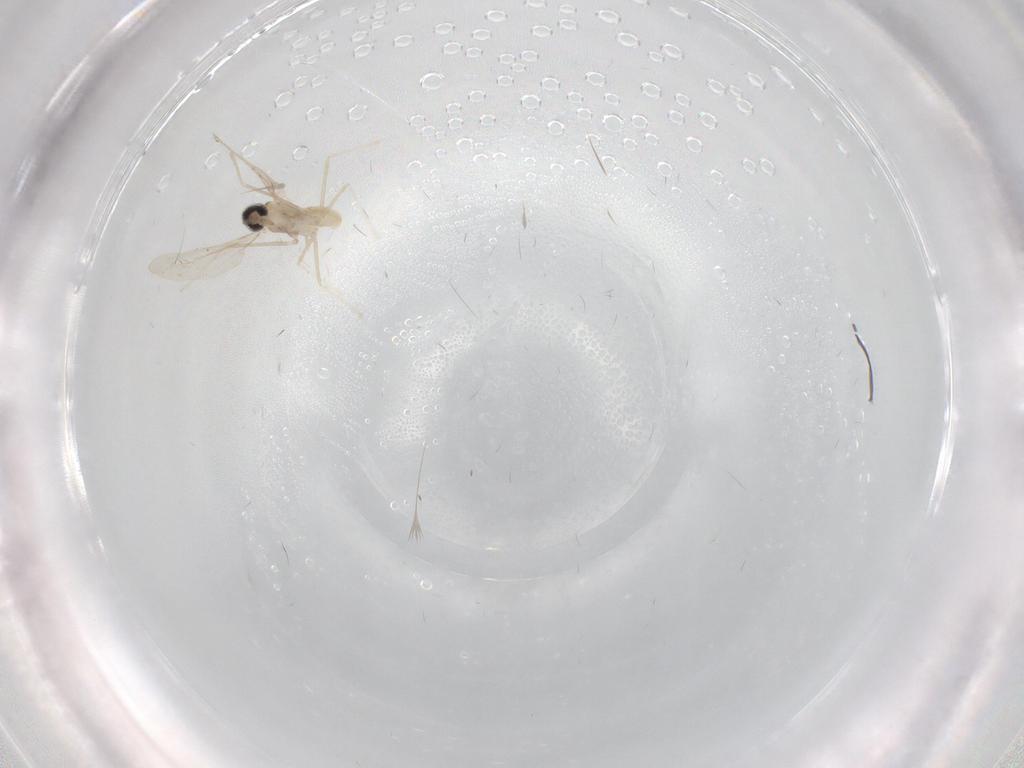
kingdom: Animalia
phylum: Arthropoda
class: Insecta
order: Diptera
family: Cecidomyiidae
